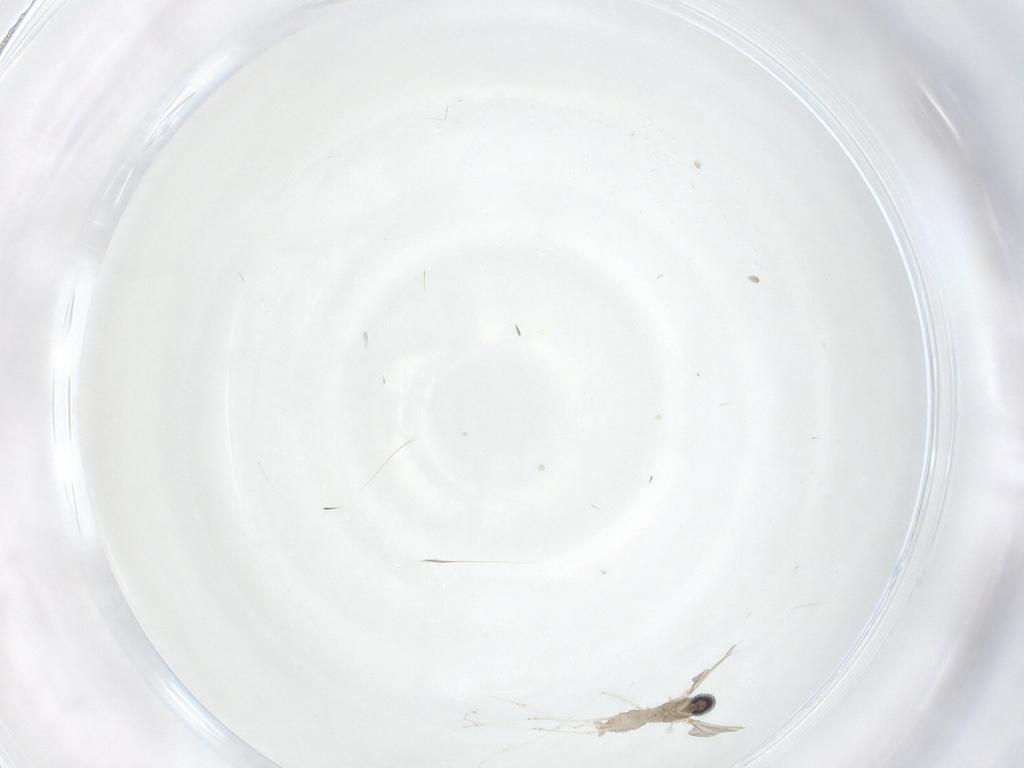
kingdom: Animalia
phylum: Arthropoda
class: Insecta
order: Diptera
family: Cecidomyiidae
